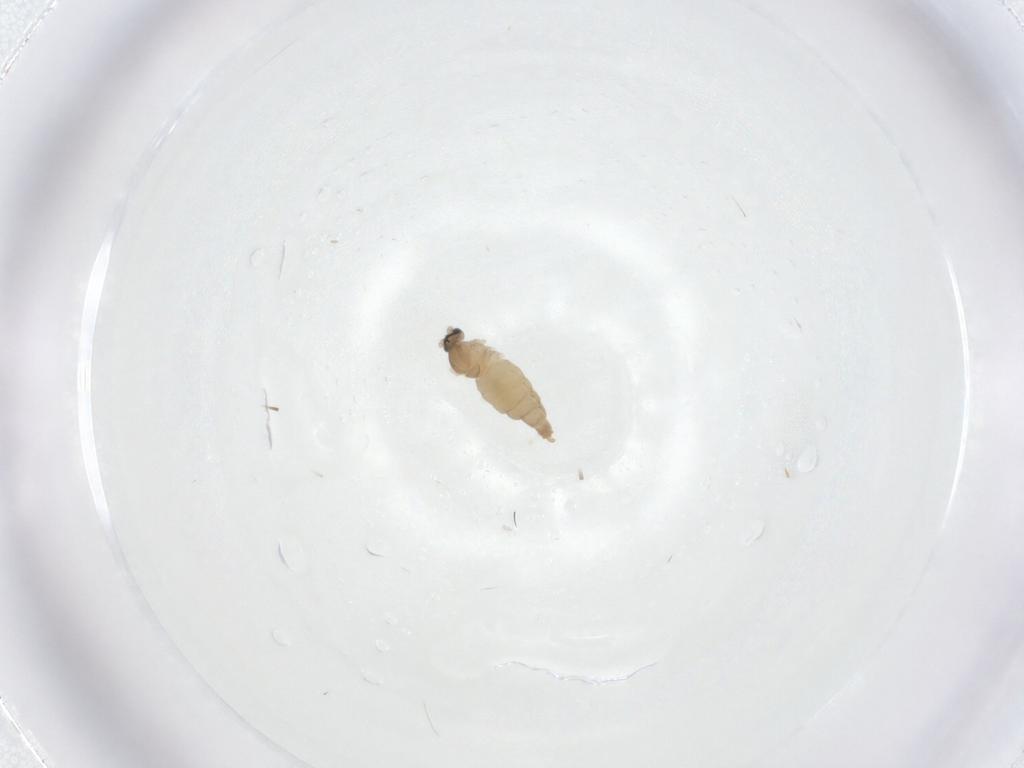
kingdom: Animalia
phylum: Arthropoda
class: Insecta
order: Diptera
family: Cecidomyiidae
